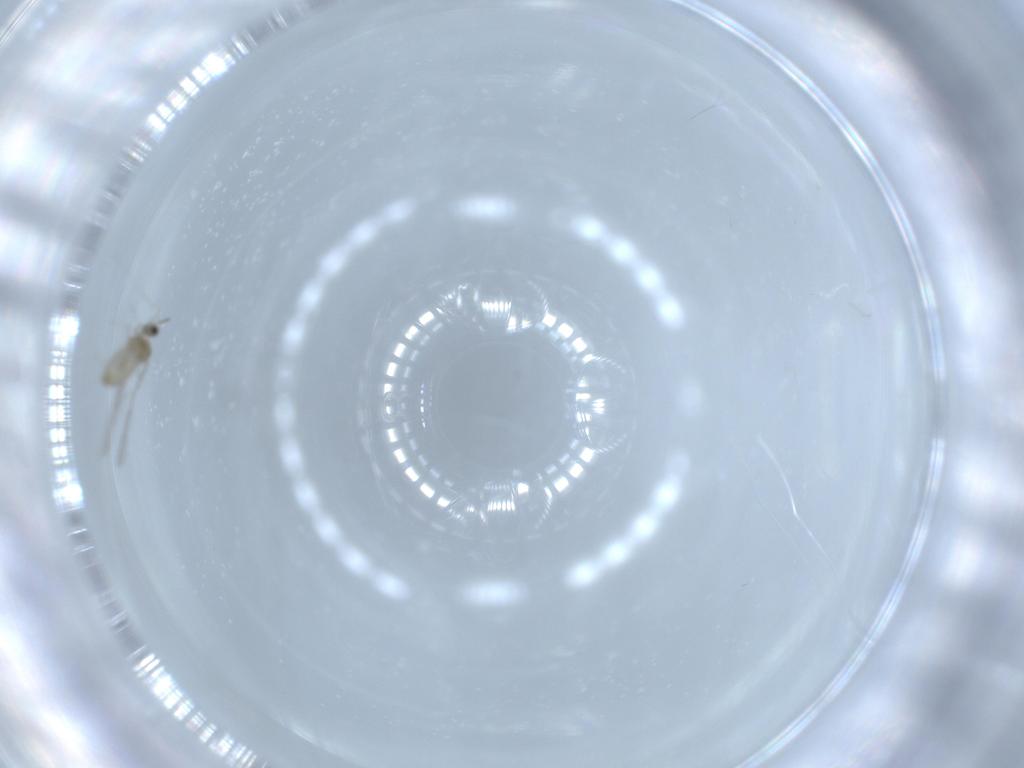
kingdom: Animalia
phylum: Arthropoda
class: Insecta
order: Diptera
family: Cecidomyiidae
